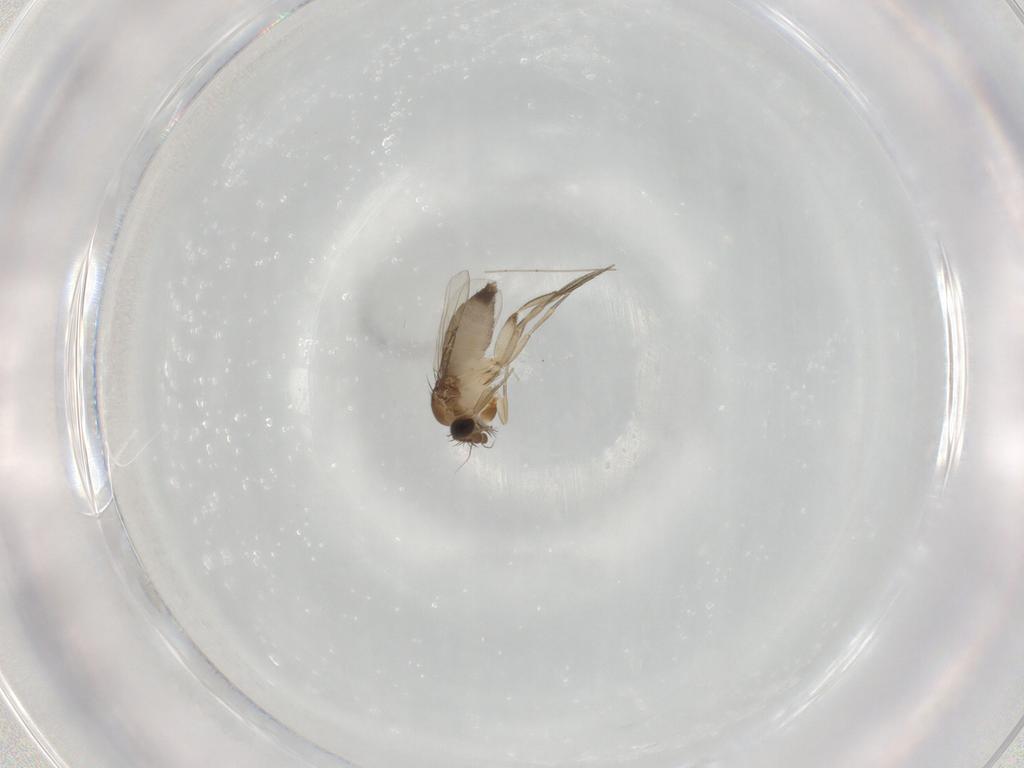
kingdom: Animalia
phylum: Arthropoda
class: Insecta
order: Diptera
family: Phoridae
